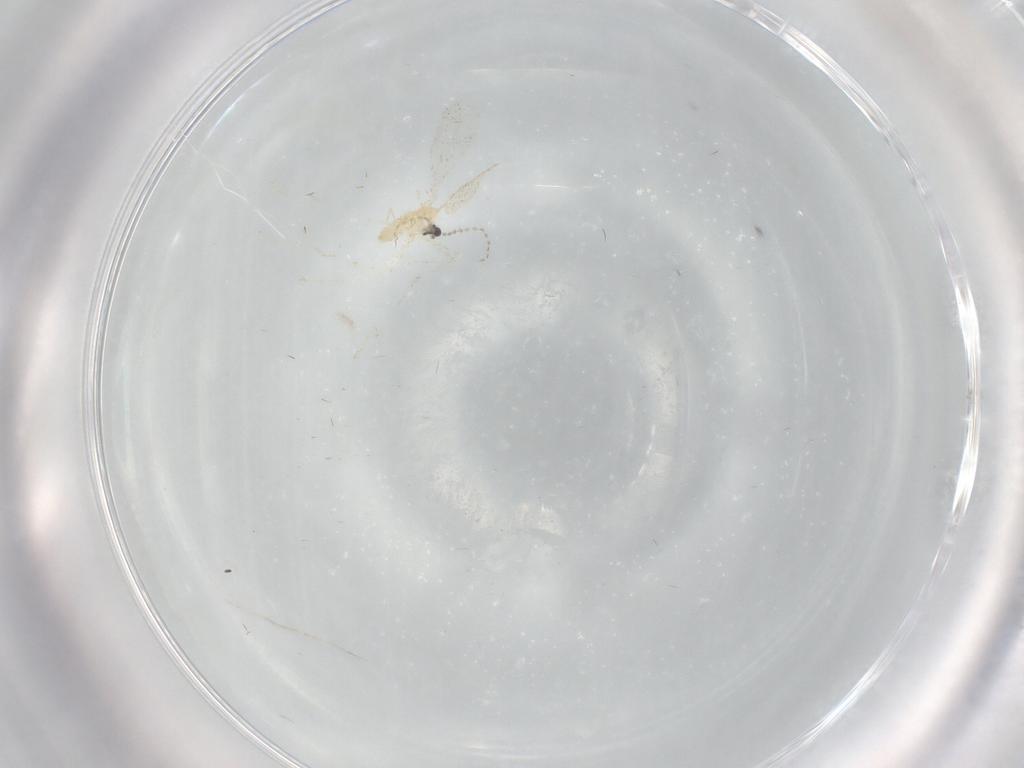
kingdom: Animalia
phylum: Arthropoda
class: Insecta
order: Diptera
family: Cecidomyiidae
